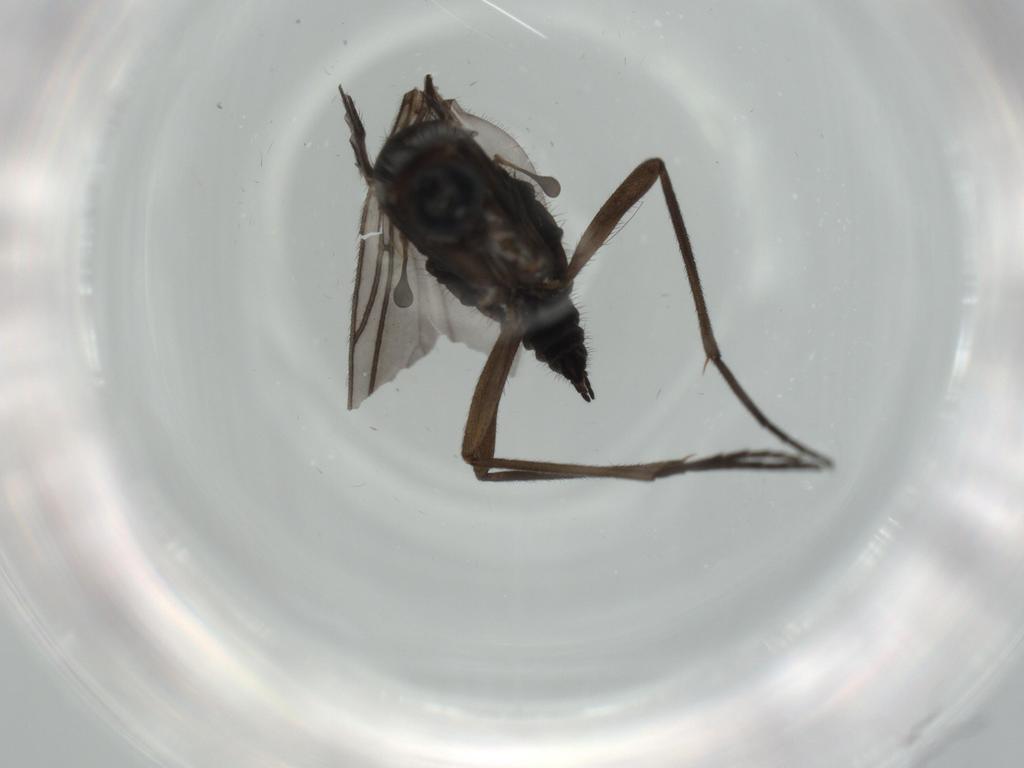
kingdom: Animalia
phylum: Arthropoda
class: Insecta
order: Diptera
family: Sciaridae
